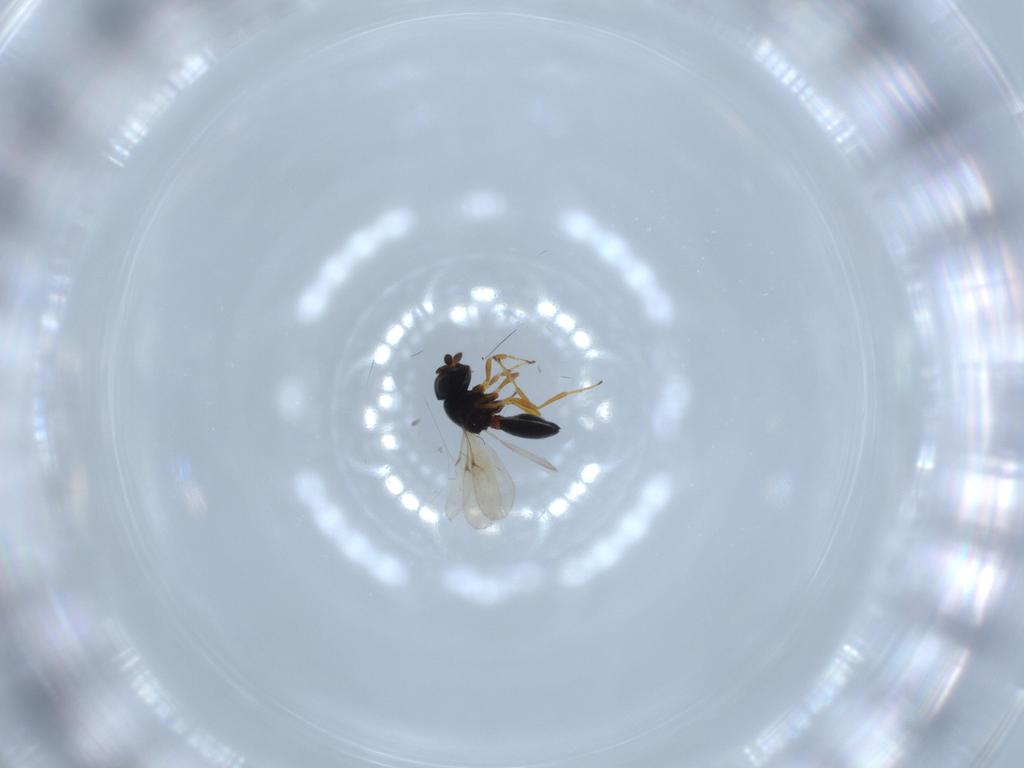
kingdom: Animalia
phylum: Arthropoda
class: Insecta
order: Hymenoptera
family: Scelionidae
